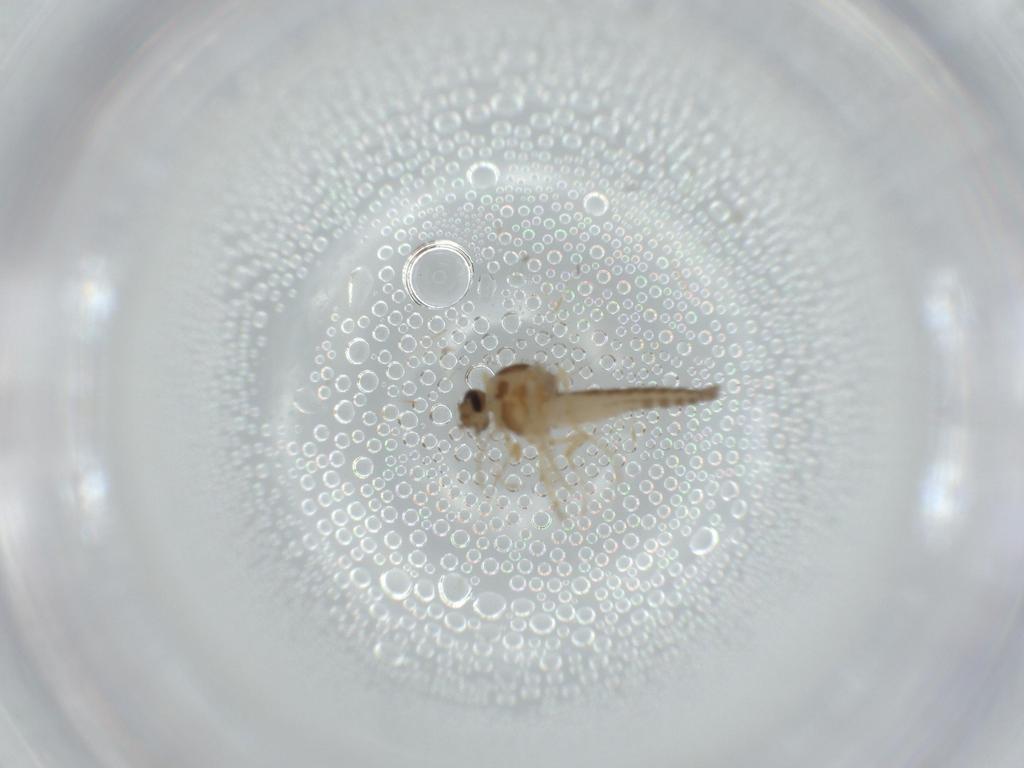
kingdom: Animalia
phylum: Arthropoda
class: Insecta
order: Diptera
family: Ceratopogonidae
